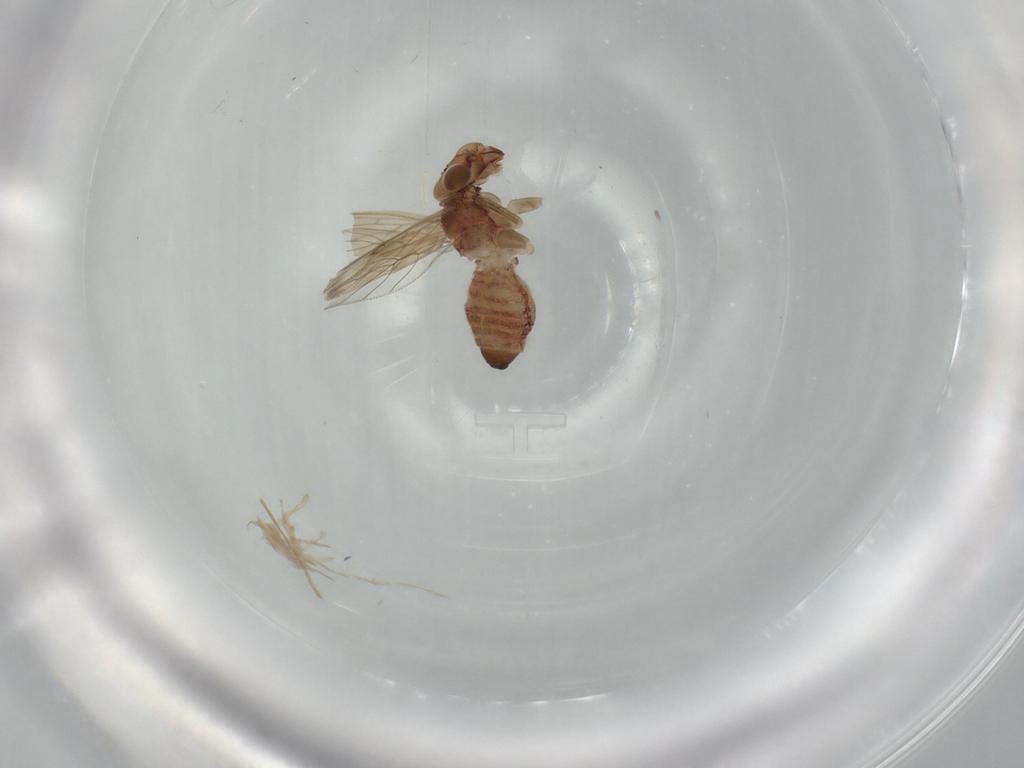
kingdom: Animalia
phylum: Arthropoda
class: Insecta
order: Psocodea
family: Lepidopsocidae
